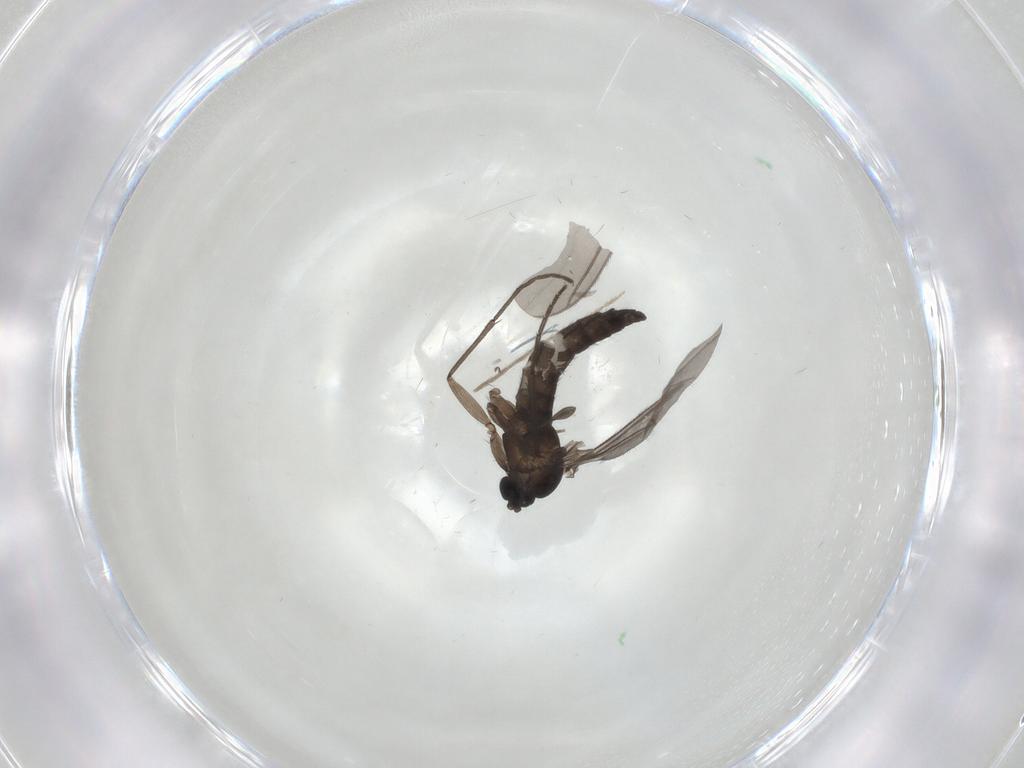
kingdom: Animalia
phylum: Arthropoda
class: Insecta
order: Diptera
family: Sciaridae
